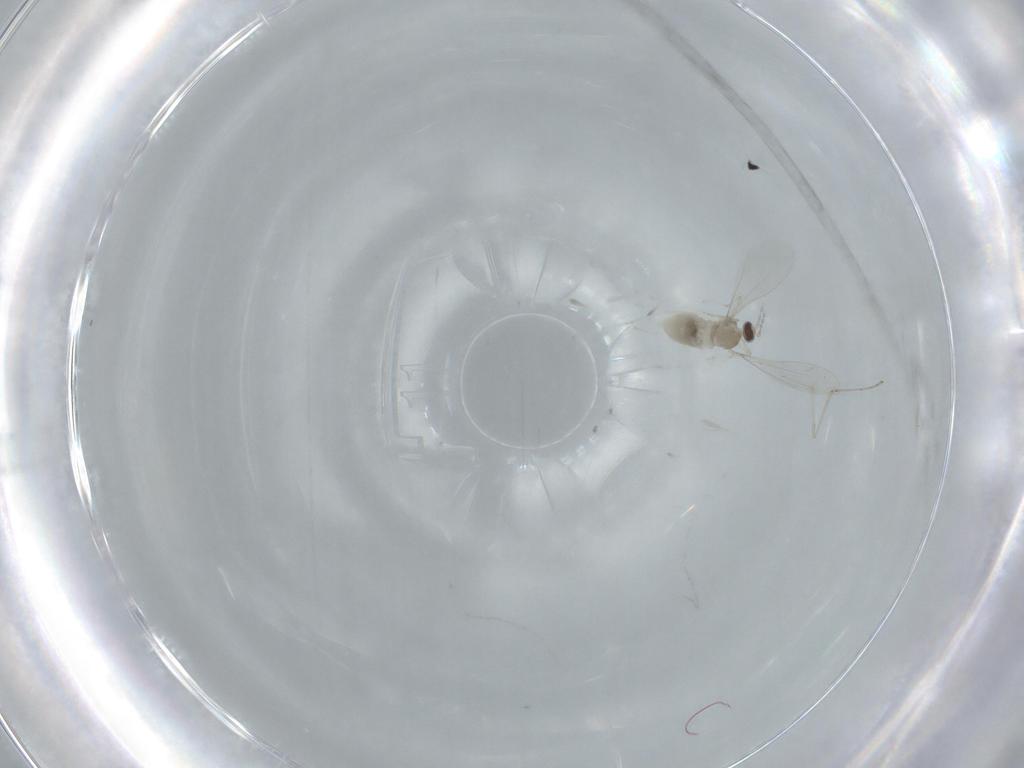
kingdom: Animalia
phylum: Arthropoda
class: Insecta
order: Diptera
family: Cecidomyiidae
